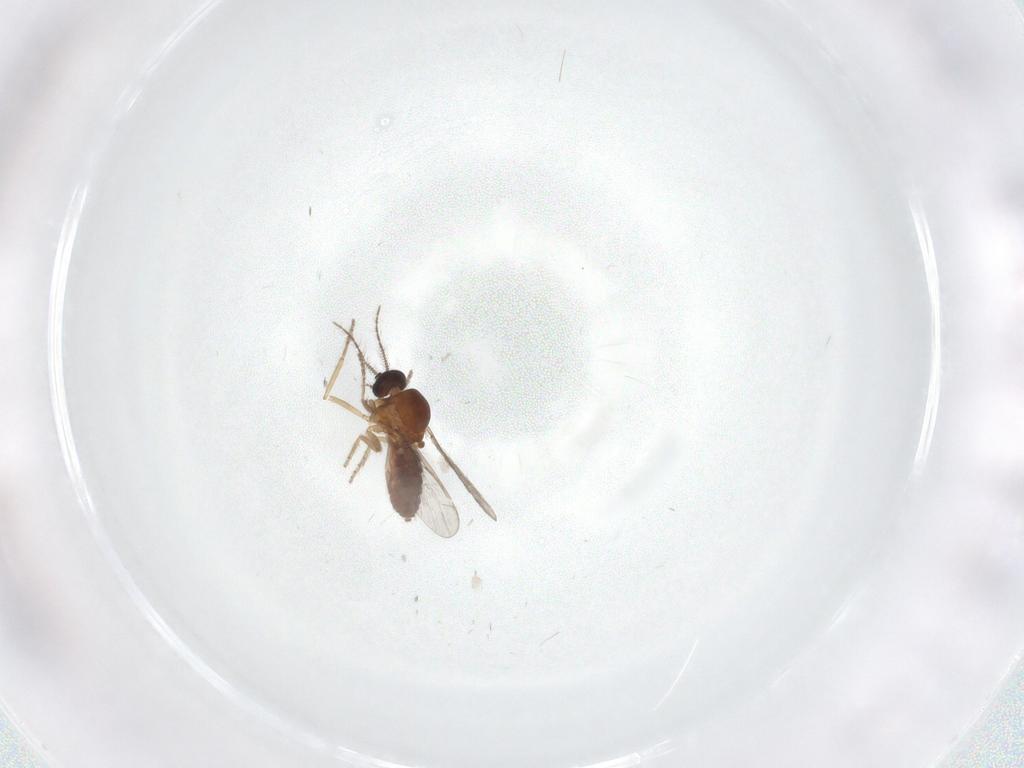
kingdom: Animalia
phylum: Arthropoda
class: Insecta
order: Diptera
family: Ceratopogonidae
